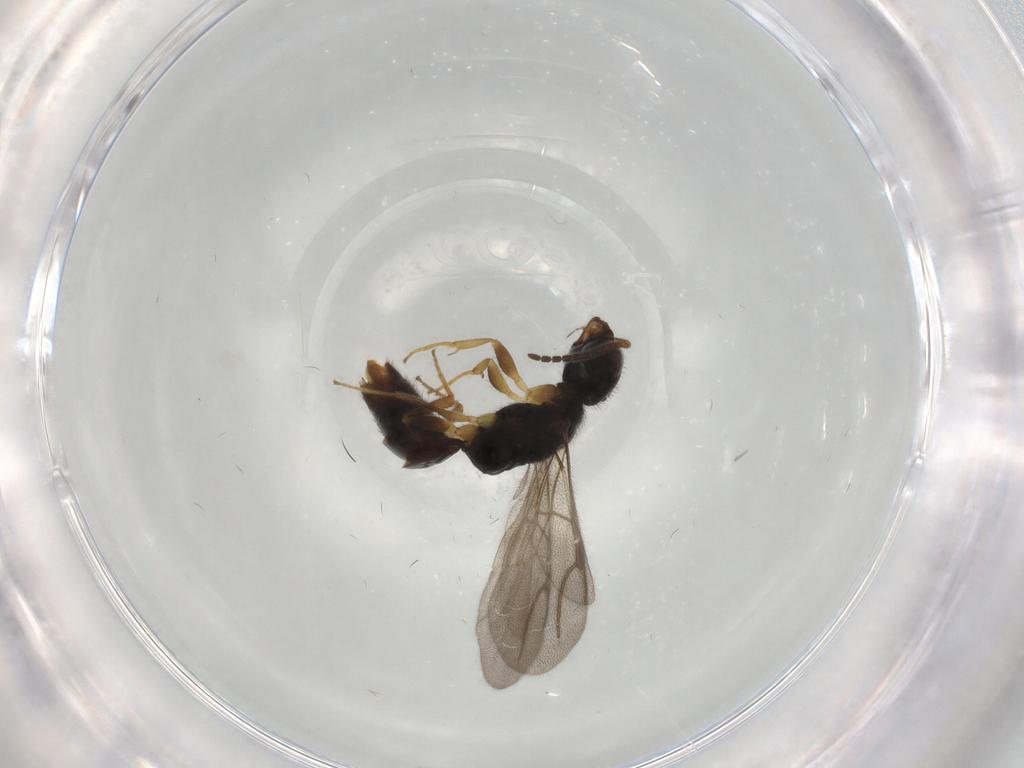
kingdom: Animalia
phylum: Arthropoda
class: Insecta
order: Hymenoptera
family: Bethylidae
